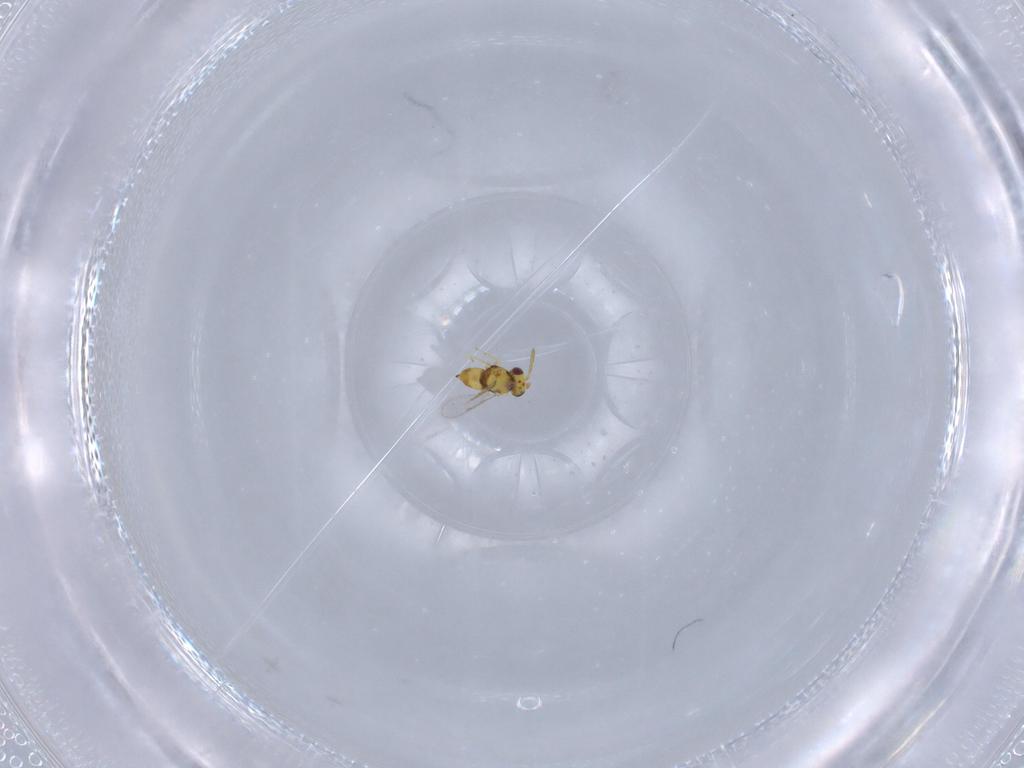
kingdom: Animalia
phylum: Arthropoda
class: Insecta
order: Hymenoptera
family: Aphelinidae
